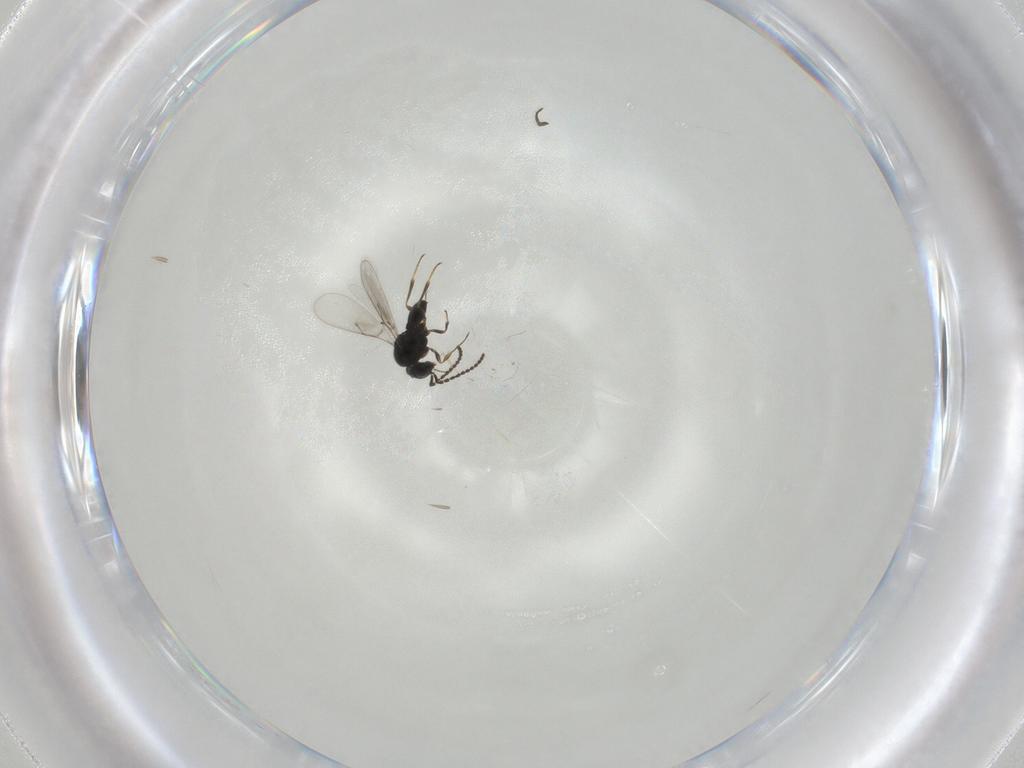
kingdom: Animalia
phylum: Arthropoda
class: Insecta
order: Hymenoptera
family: Scelionidae
